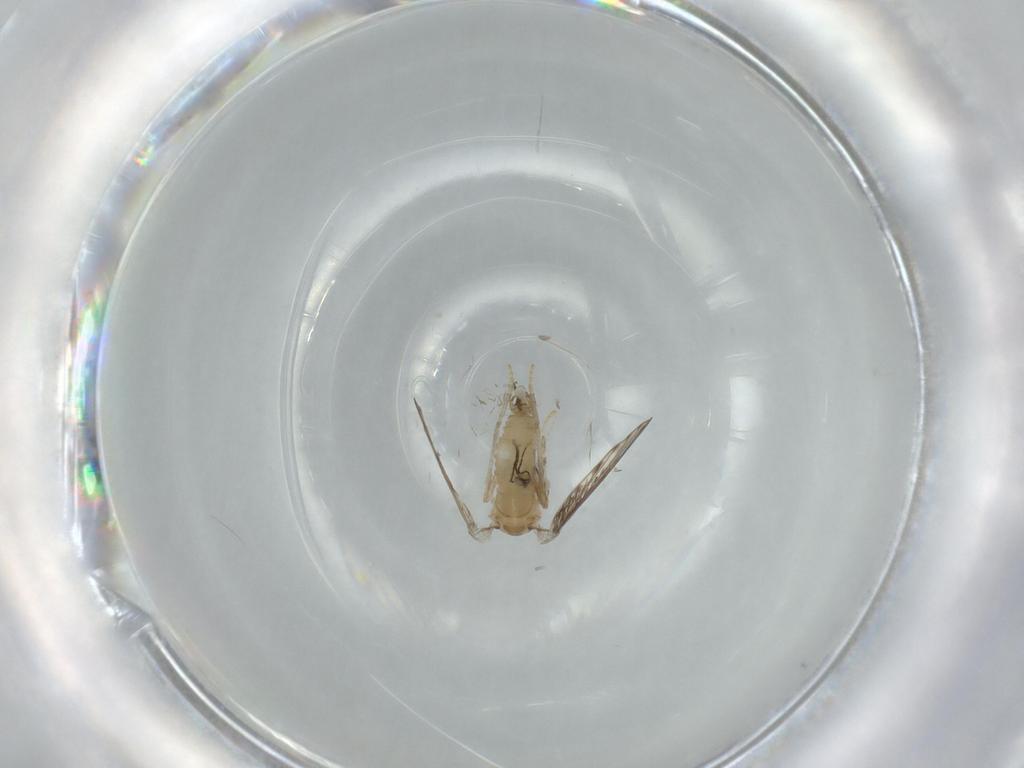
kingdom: Animalia
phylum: Arthropoda
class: Insecta
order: Diptera
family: Psychodidae
